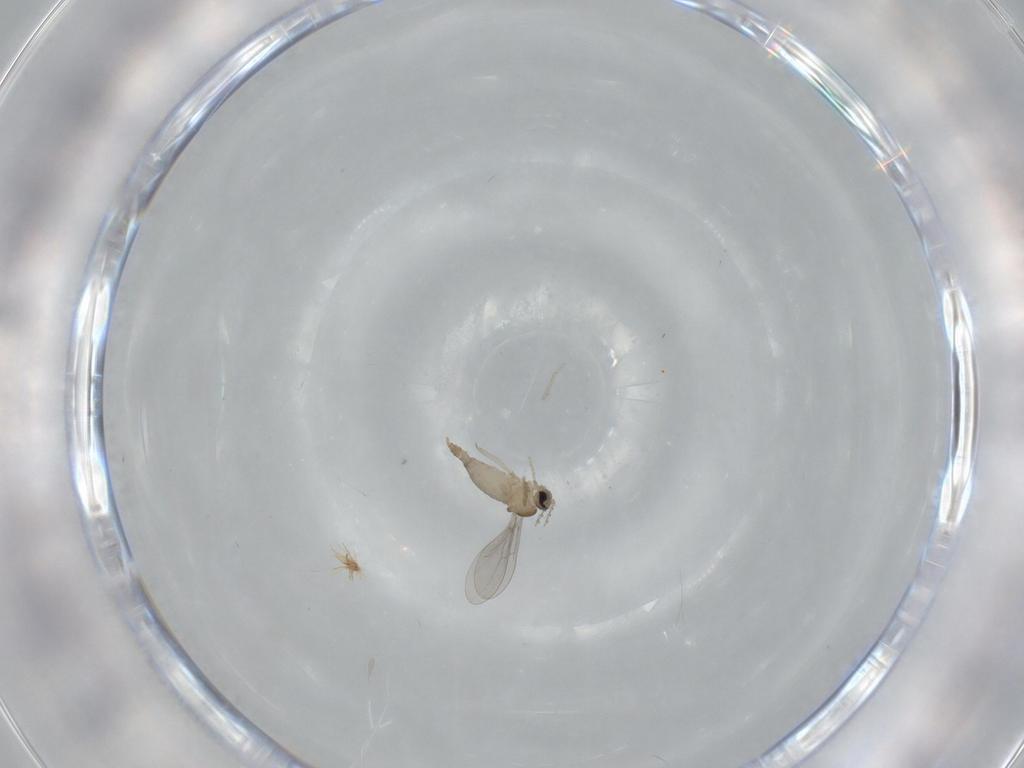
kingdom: Animalia
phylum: Arthropoda
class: Insecta
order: Diptera
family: Cecidomyiidae
